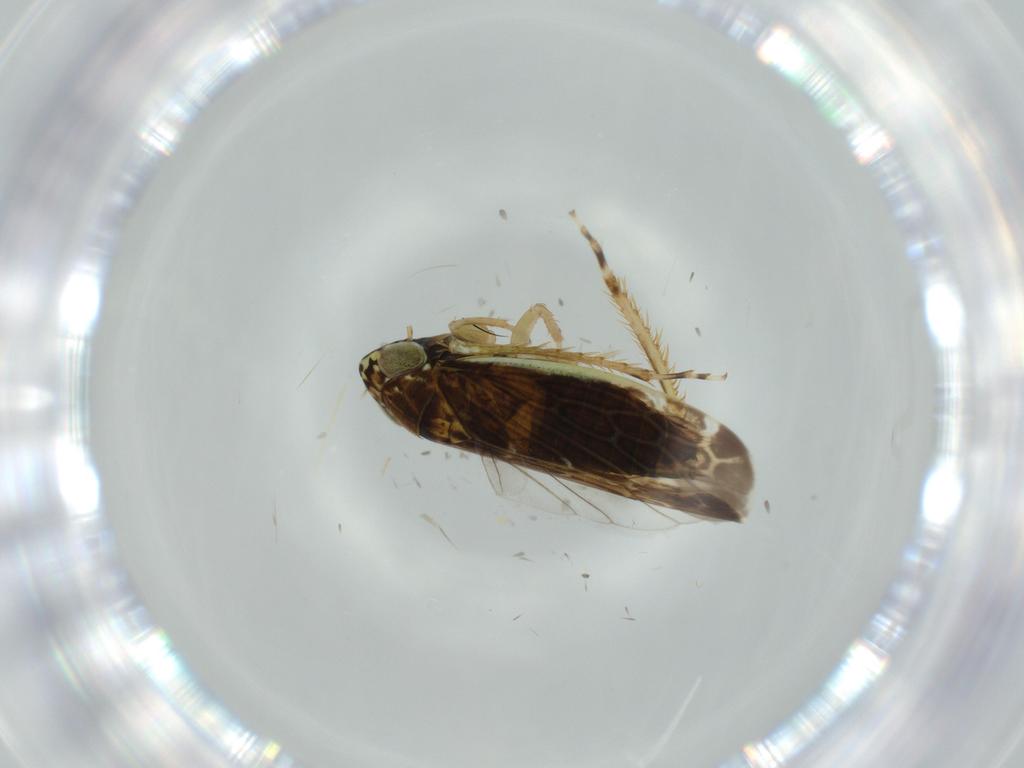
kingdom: Animalia
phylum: Arthropoda
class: Insecta
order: Hemiptera
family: Cicadellidae
